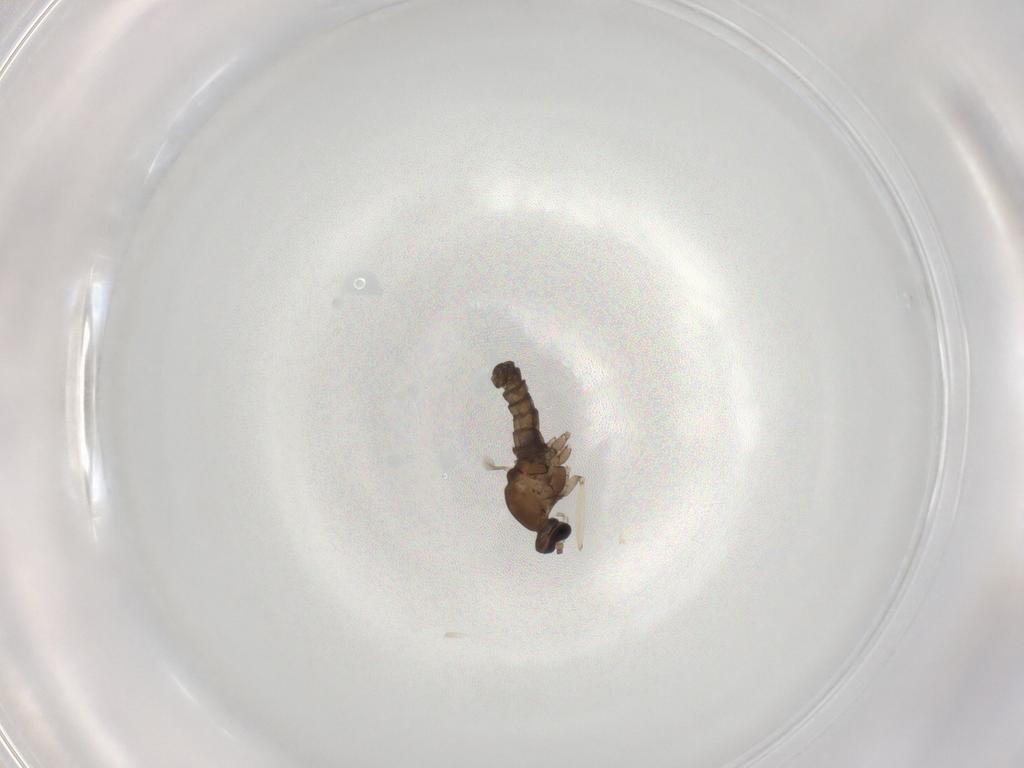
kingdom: Animalia
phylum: Arthropoda
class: Insecta
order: Diptera
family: Cecidomyiidae
